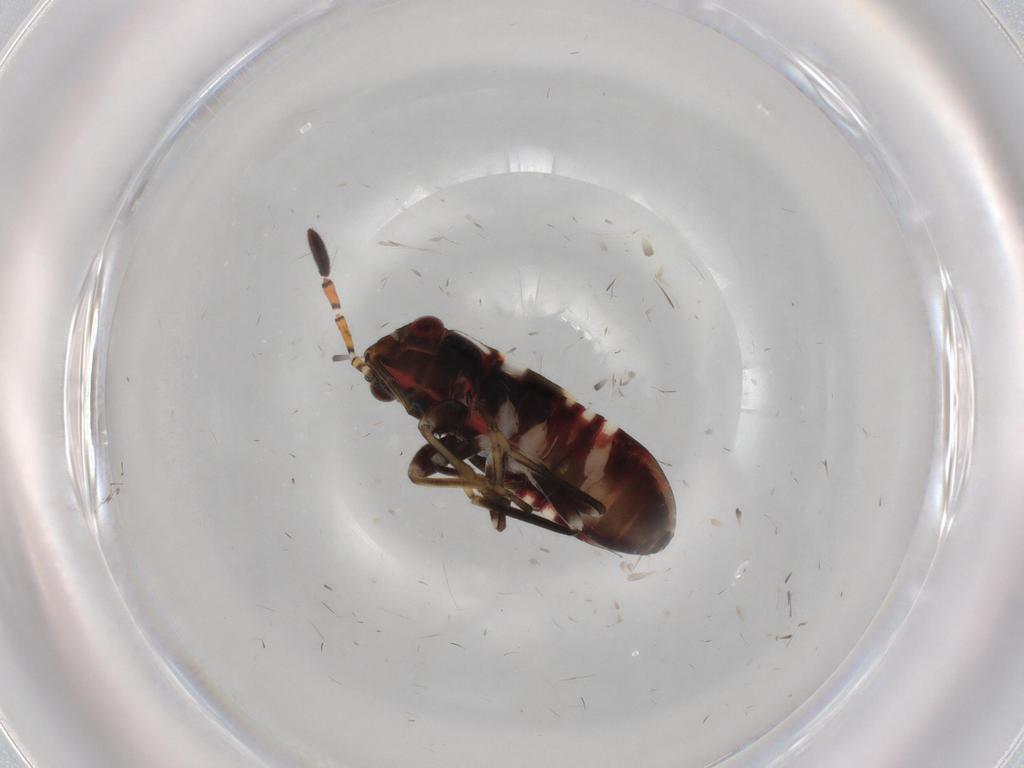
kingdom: Animalia
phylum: Arthropoda
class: Insecta
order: Hemiptera
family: Rhyparochromidae
